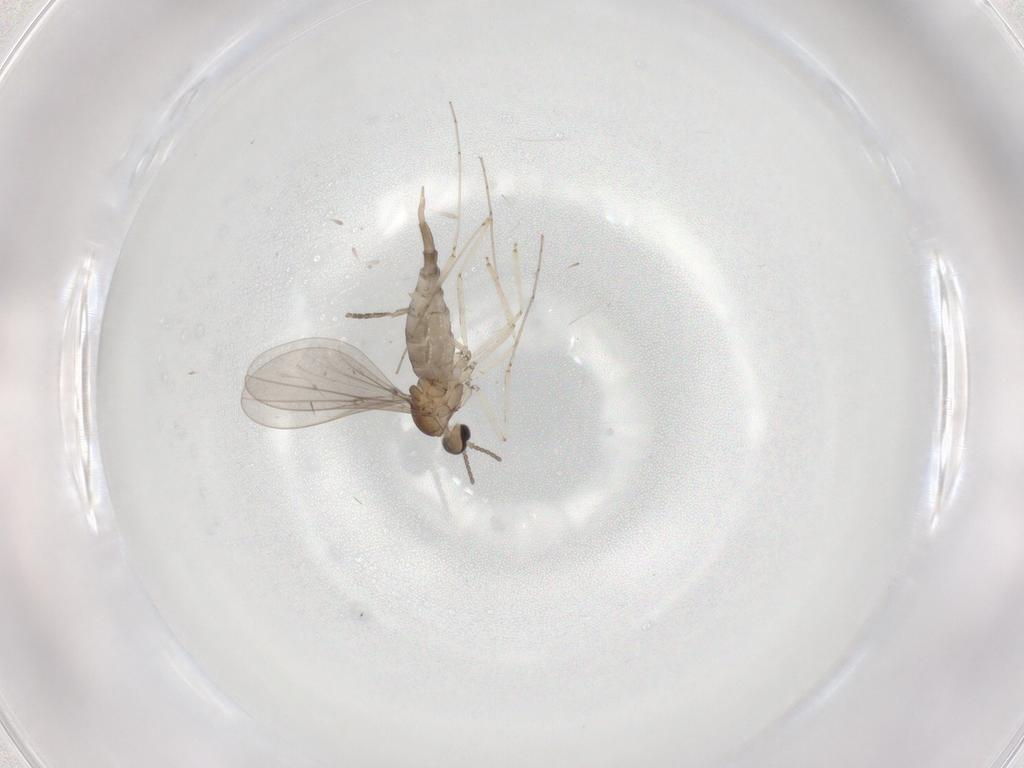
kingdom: Animalia
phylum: Arthropoda
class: Insecta
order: Diptera
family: Cecidomyiidae
